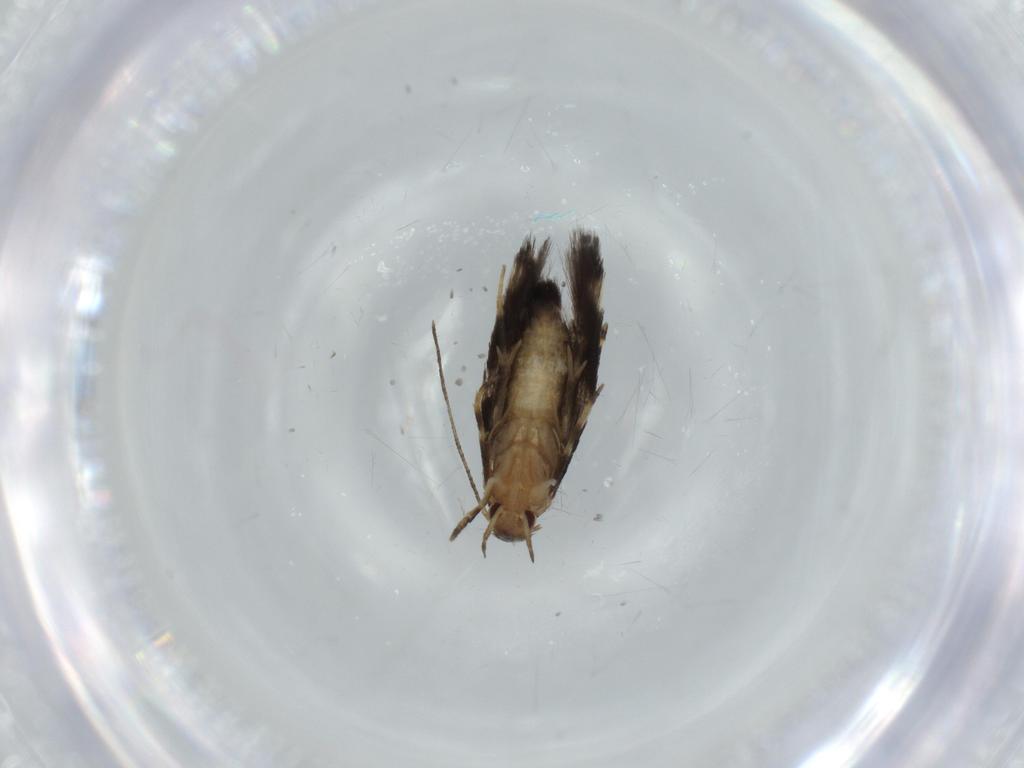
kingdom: Animalia
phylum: Arthropoda
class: Insecta
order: Lepidoptera
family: Cosmopterigidae
